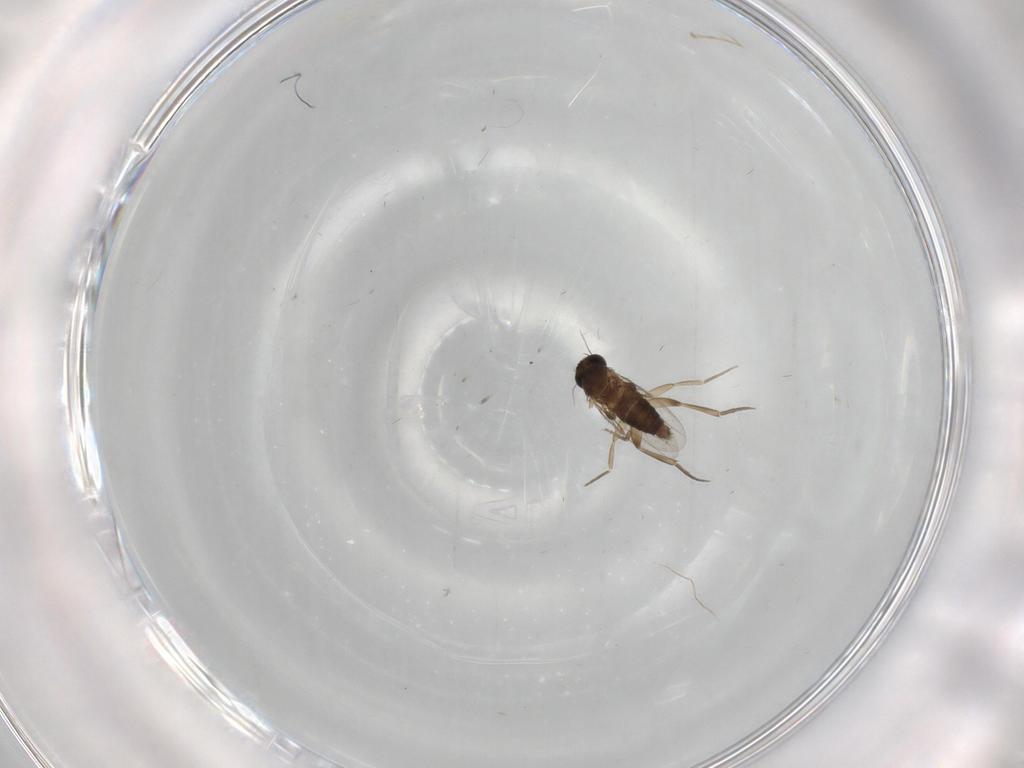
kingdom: Animalia
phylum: Arthropoda
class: Insecta
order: Diptera
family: Phoridae
